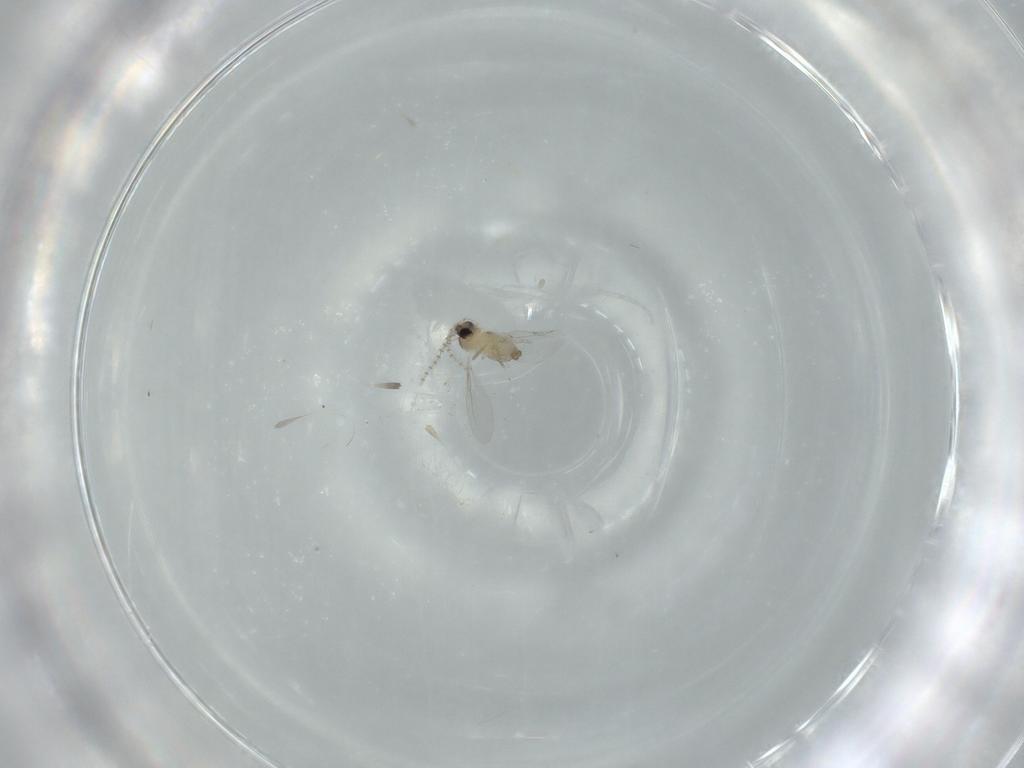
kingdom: Animalia
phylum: Arthropoda
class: Insecta
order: Diptera
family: Cecidomyiidae
